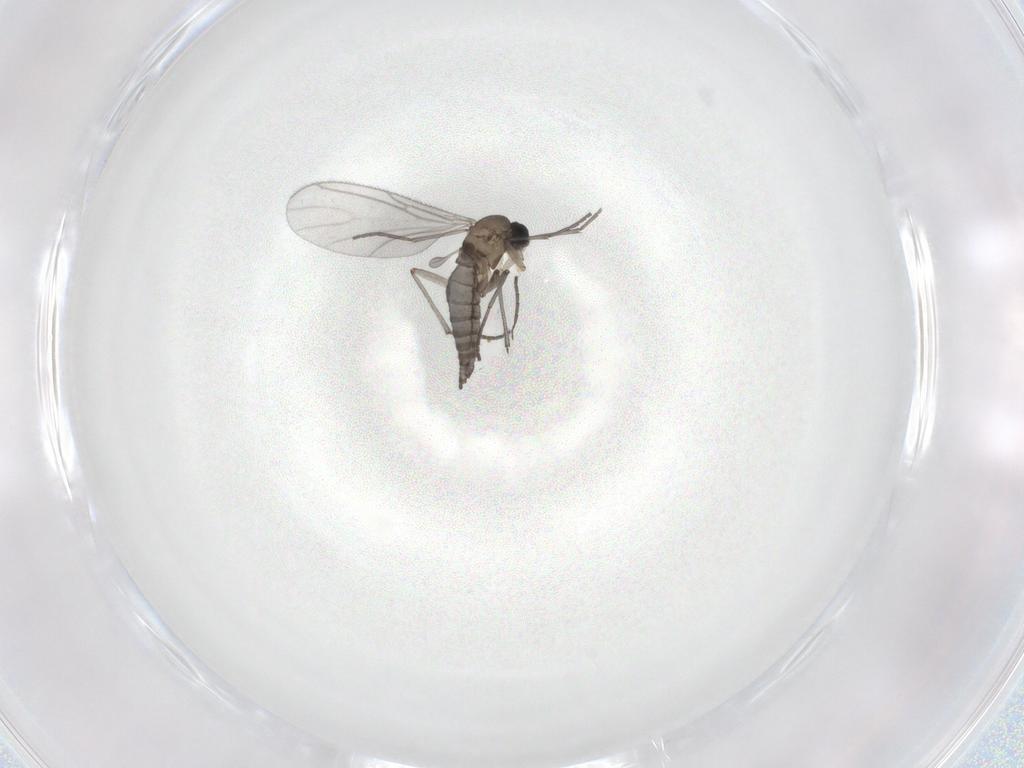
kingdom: Animalia
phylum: Arthropoda
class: Insecta
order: Diptera
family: Sciaridae
